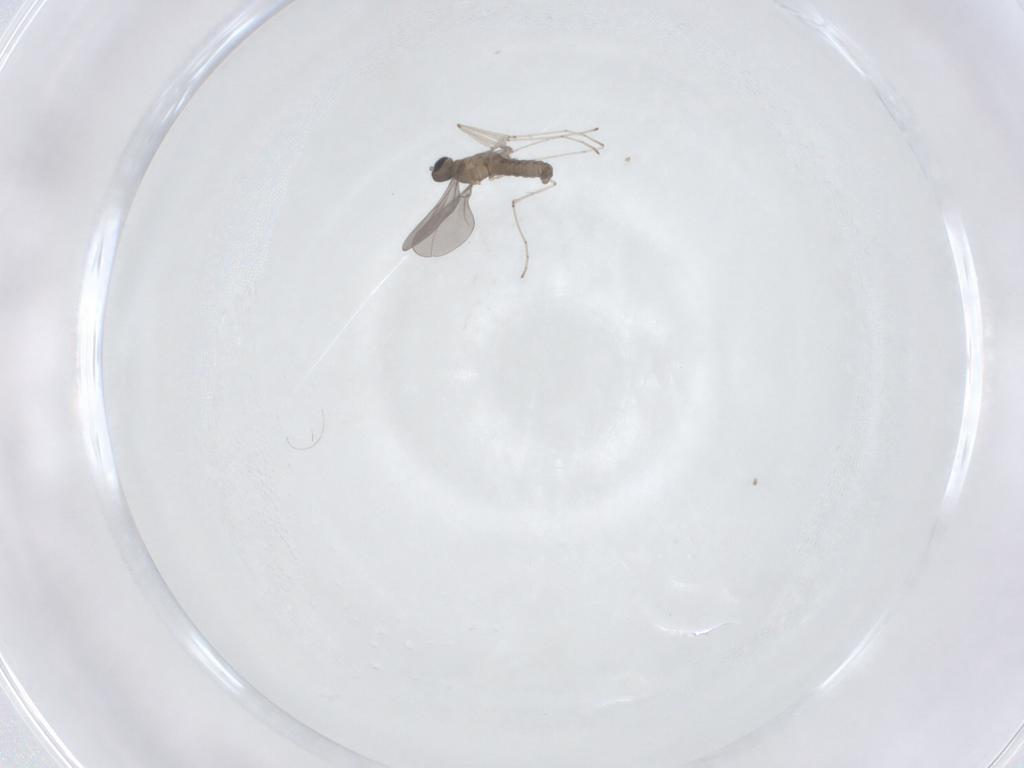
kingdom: Animalia
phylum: Arthropoda
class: Insecta
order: Diptera
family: Cecidomyiidae
